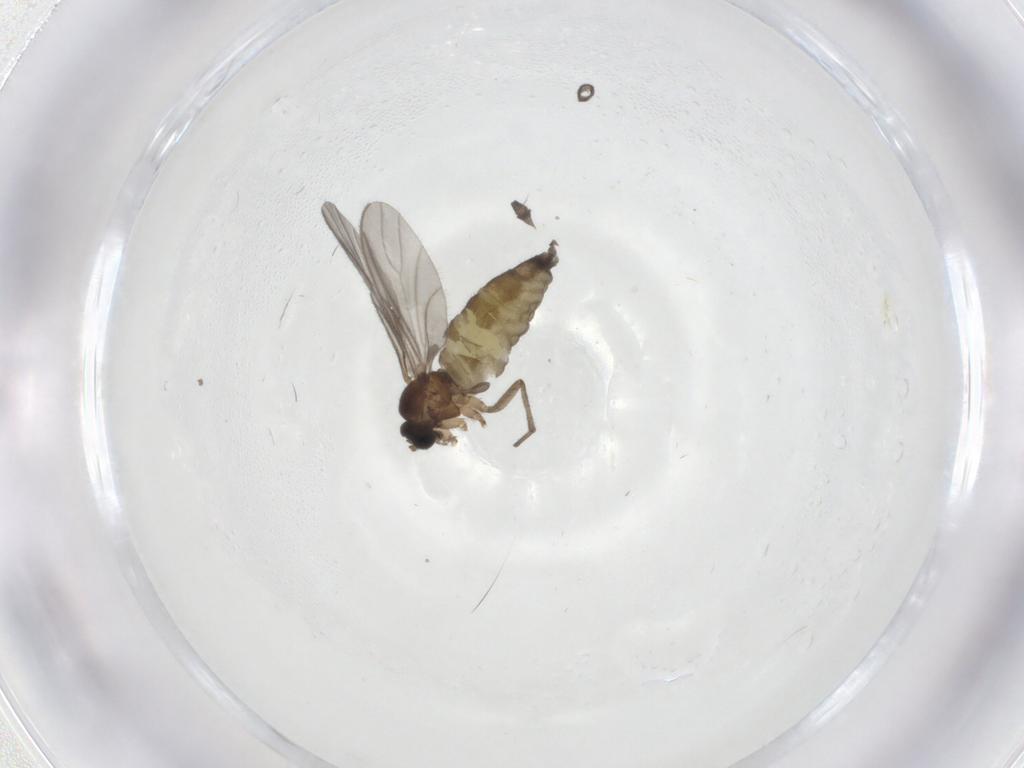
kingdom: Animalia
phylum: Arthropoda
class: Insecta
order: Diptera
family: Sciaridae
